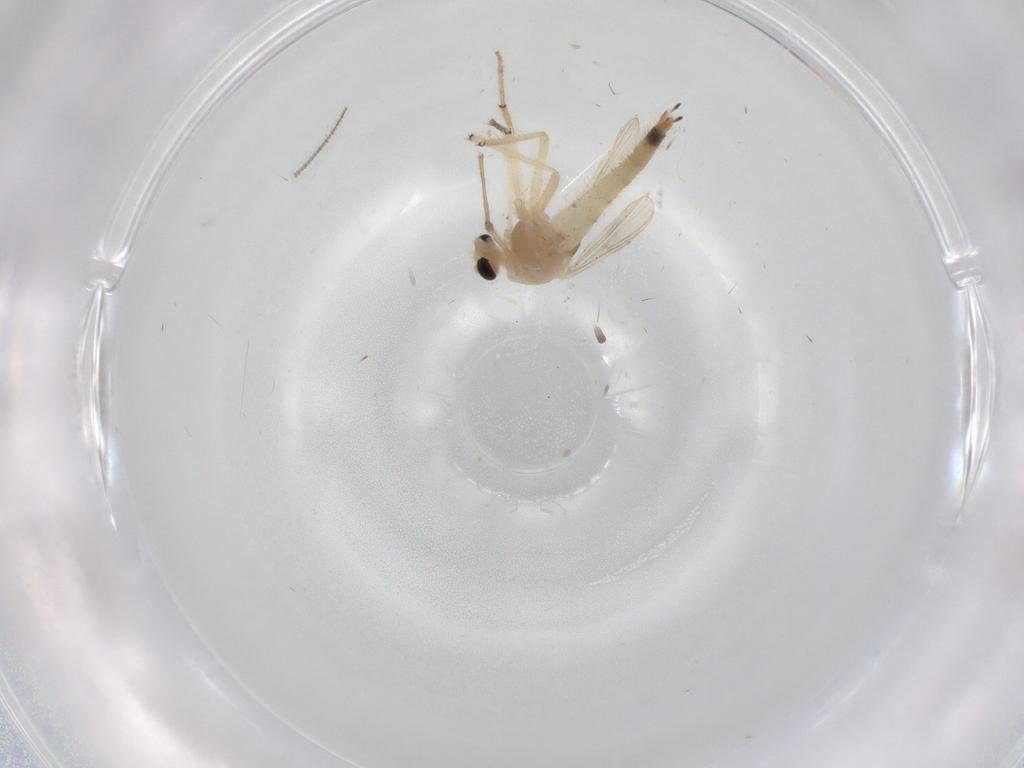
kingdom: Animalia
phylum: Arthropoda
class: Insecta
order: Diptera
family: Chironomidae
